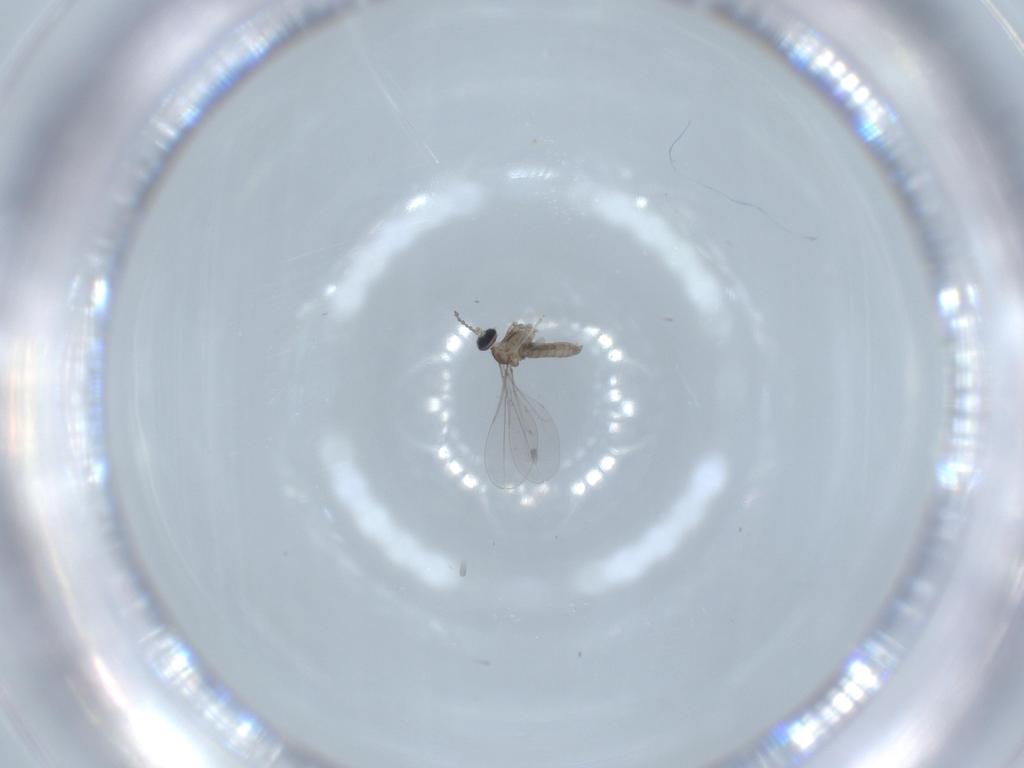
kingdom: Animalia
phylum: Arthropoda
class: Insecta
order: Diptera
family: Cecidomyiidae
